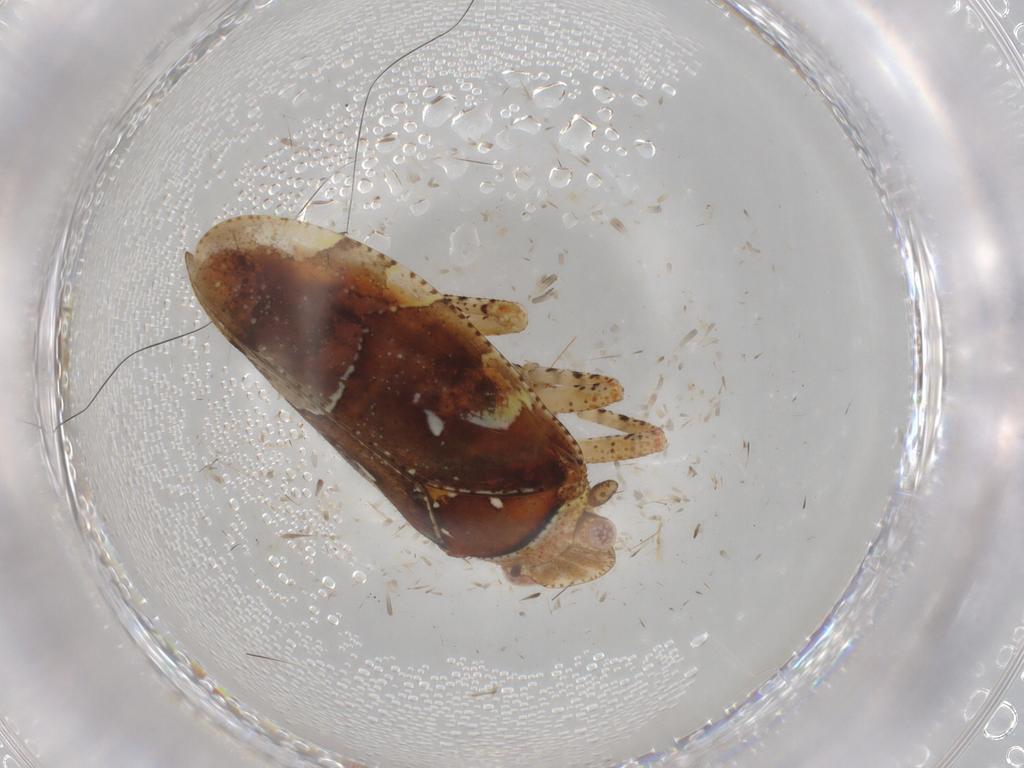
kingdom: Animalia
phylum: Arthropoda
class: Insecta
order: Hemiptera
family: Tettigometridae
